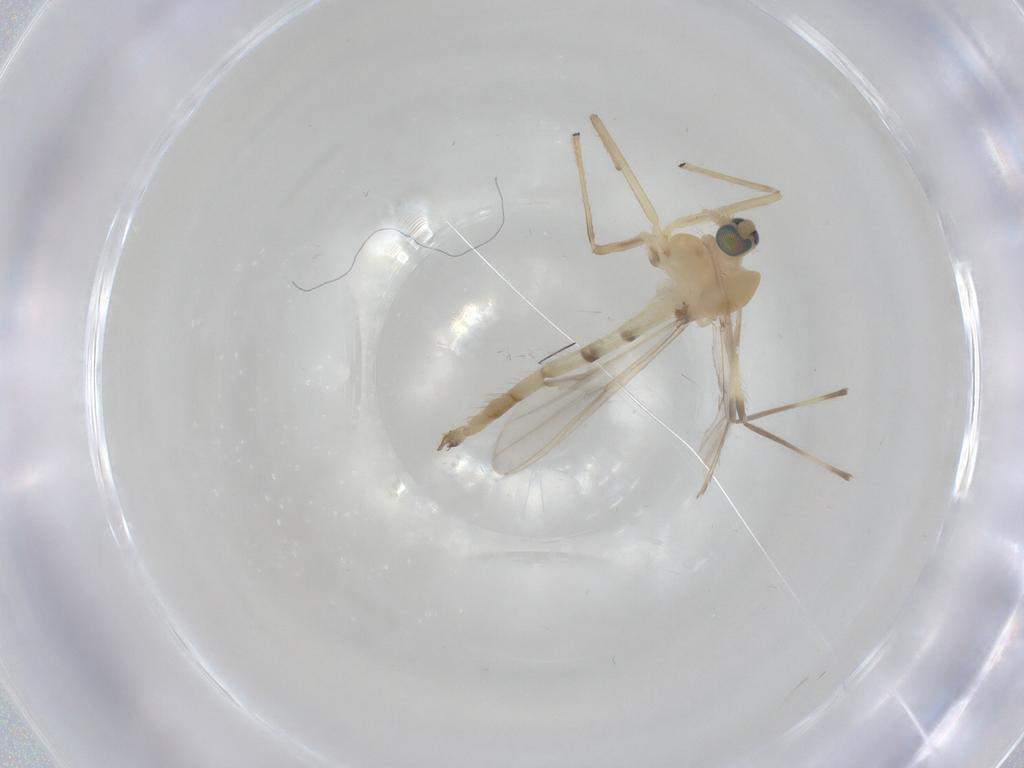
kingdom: Animalia
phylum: Arthropoda
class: Insecta
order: Diptera
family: Chironomidae
